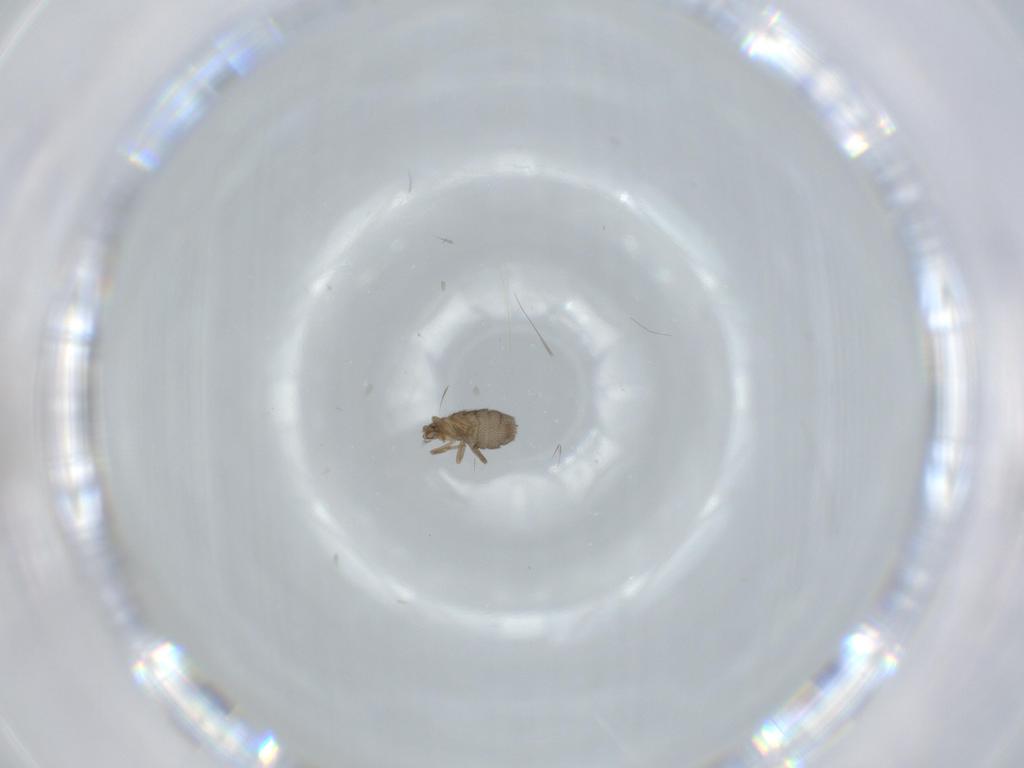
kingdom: Animalia
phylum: Arthropoda
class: Insecta
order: Diptera
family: Phoridae
